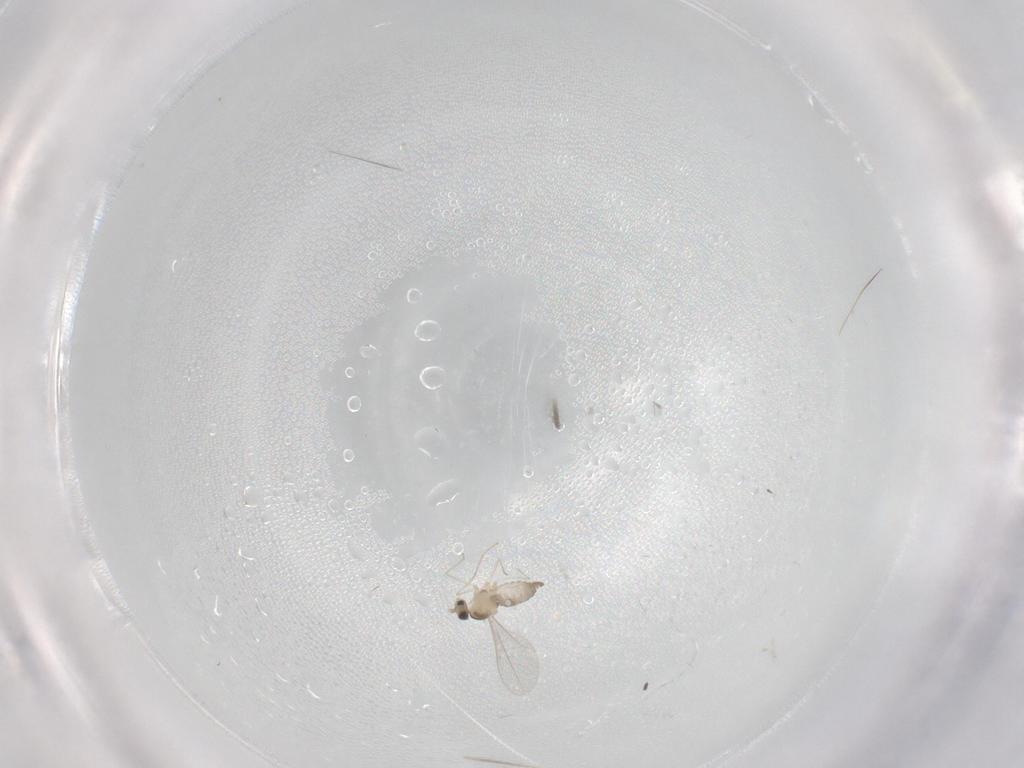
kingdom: Animalia
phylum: Arthropoda
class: Insecta
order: Diptera
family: Cecidomyiidae
